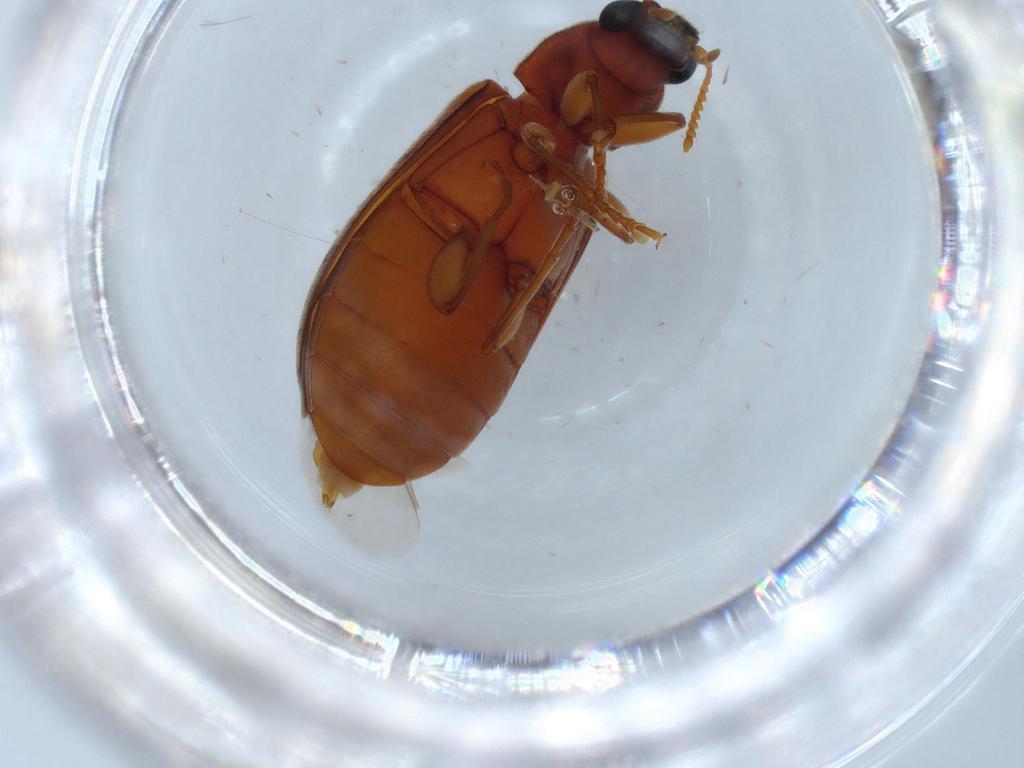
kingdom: Animalia
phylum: Arthropoda
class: Insecta
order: Coleoptera
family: Mycteridae
